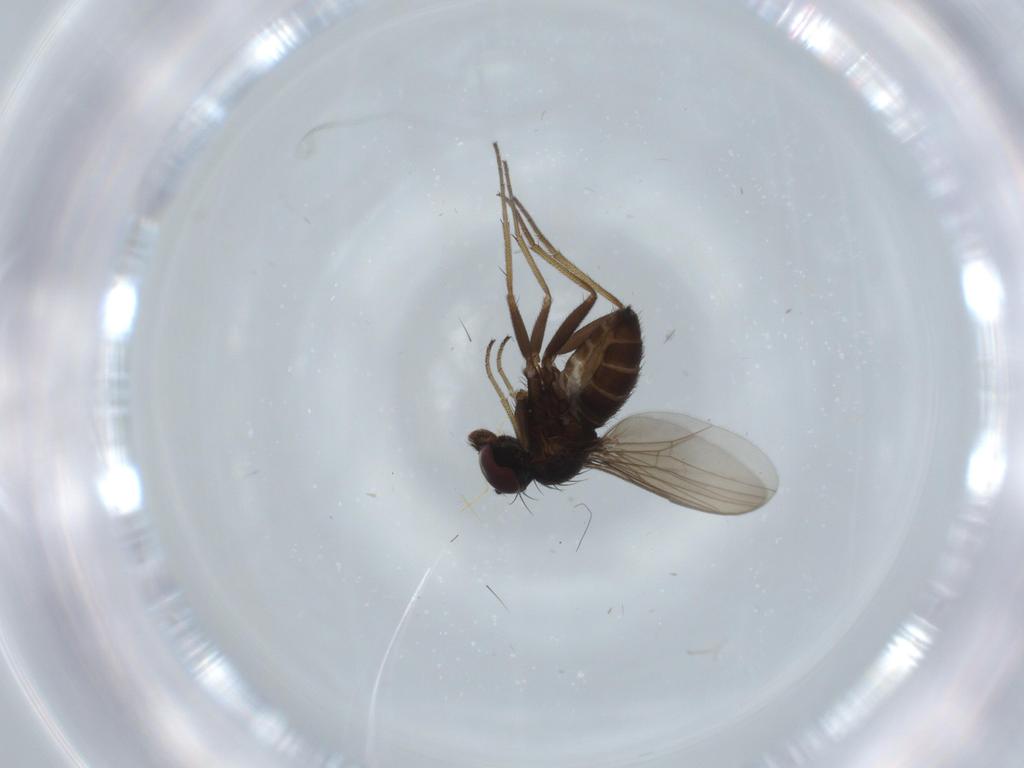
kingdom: Animalia
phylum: Arthropoda
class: Insecta
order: Diptera
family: Dolichopodidae
